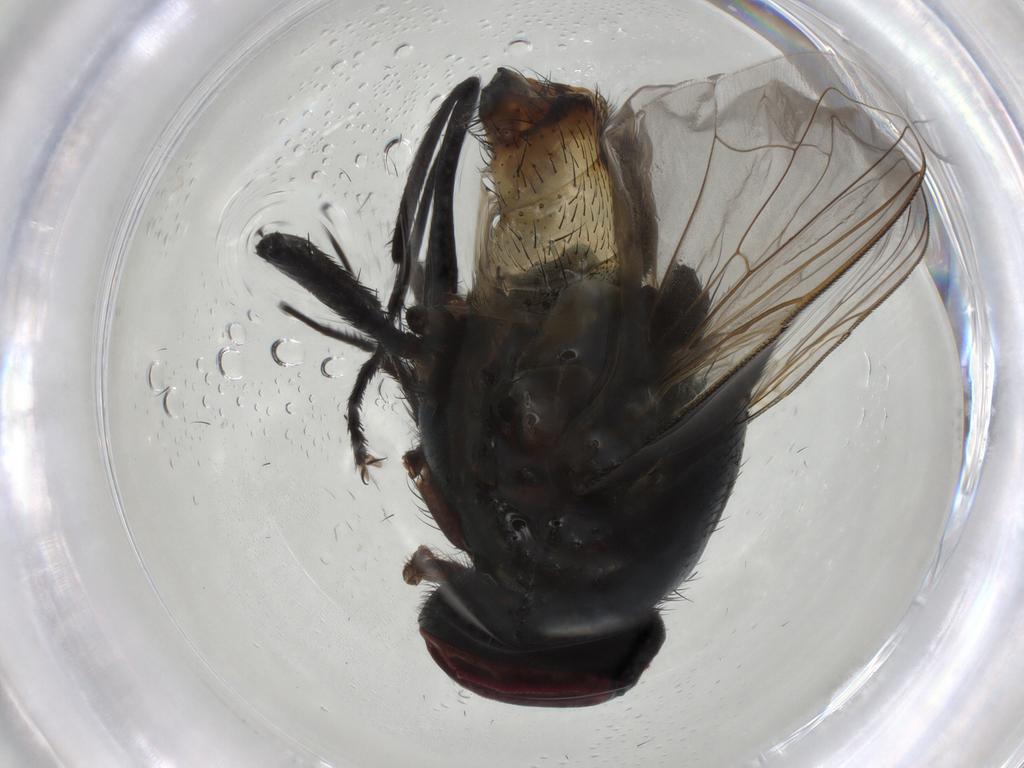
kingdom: Animalia
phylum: Arthropoda
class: Insecta
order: Diptera
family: Muscidae
